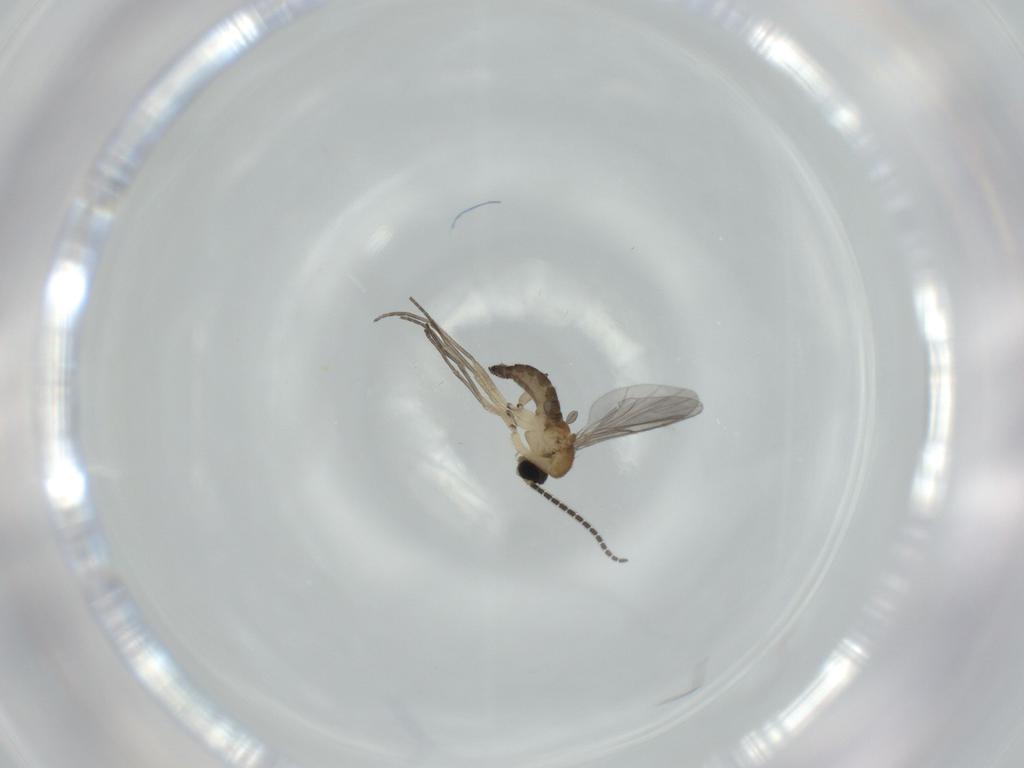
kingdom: Animalia
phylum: Arthropoda
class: Insecta
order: Diptera
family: Sciaridae
